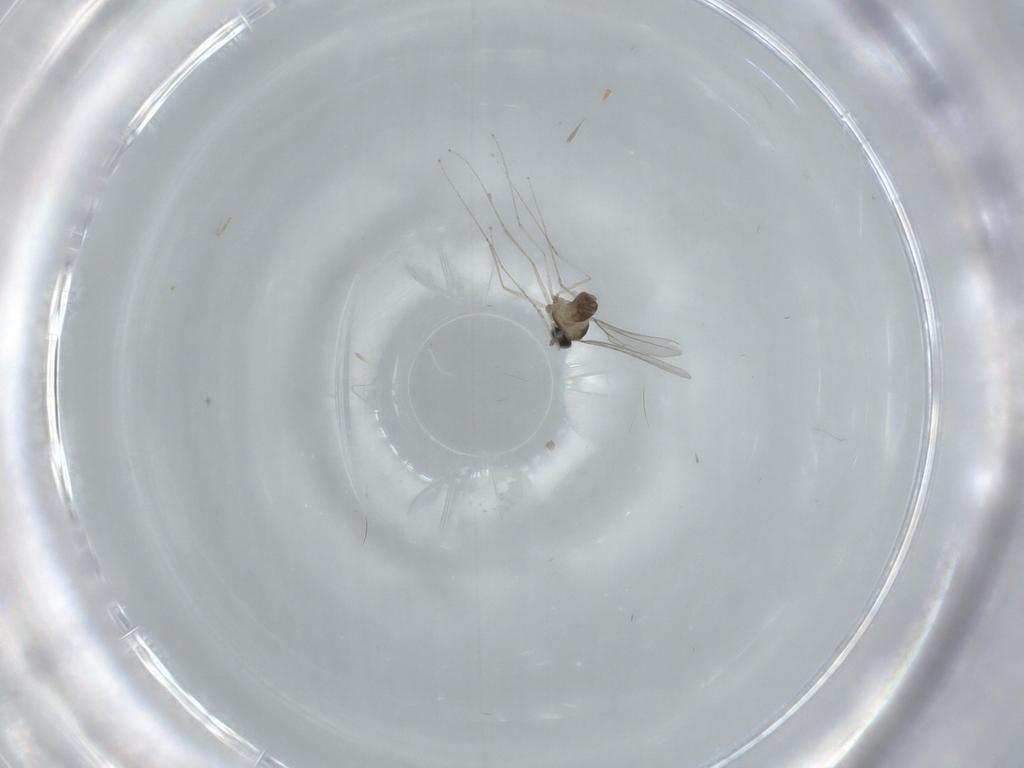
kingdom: Animalia
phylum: Arthropoda
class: Insecta
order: Diptera
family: Cecidomyiidae
